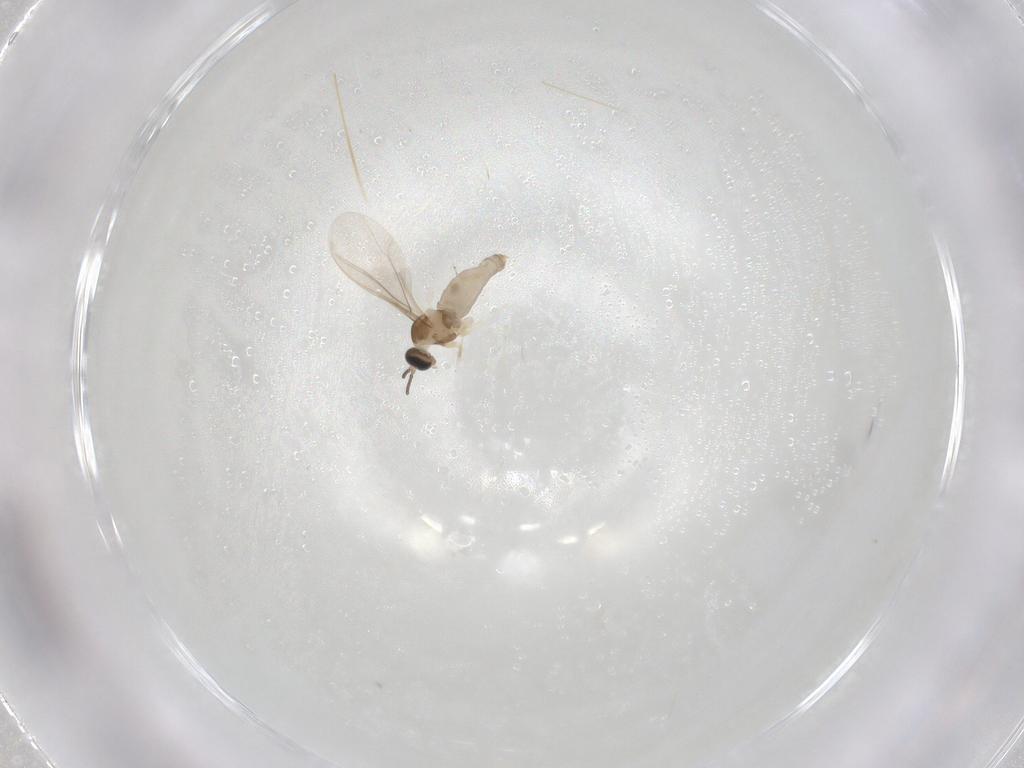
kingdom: Animalia
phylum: Arthropoda
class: Insecta
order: Diptera
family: Cecidomyiidae
